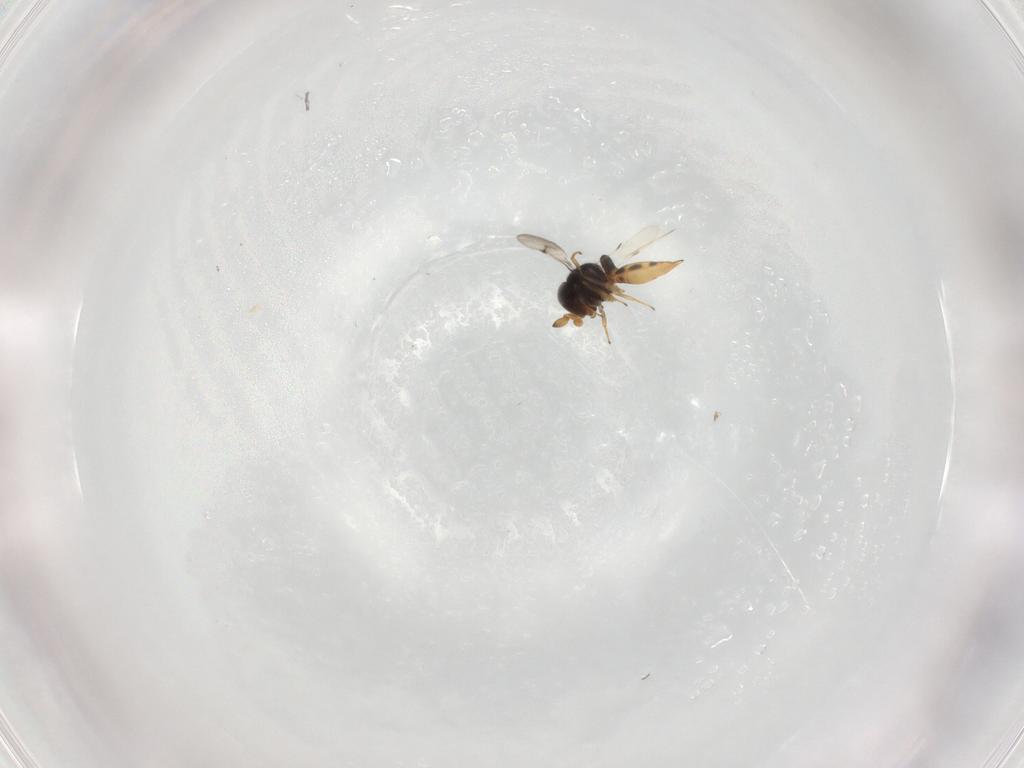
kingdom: Animalia
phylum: Arthropoda
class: Insecta
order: Hymenoptera
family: Scelionidae
